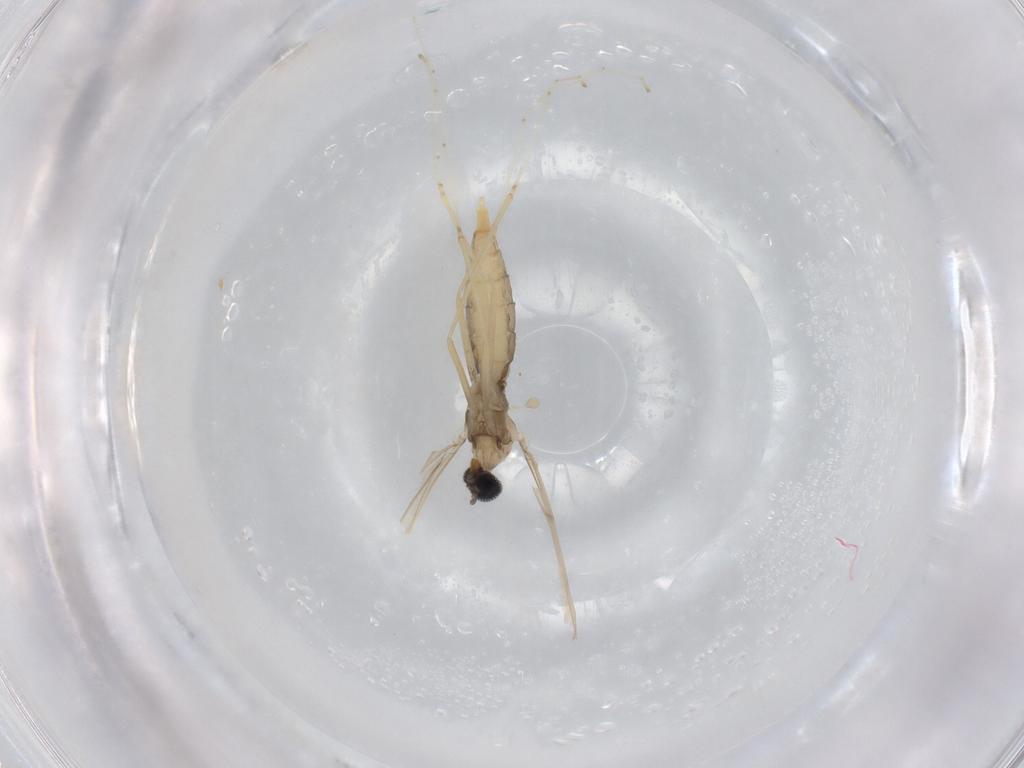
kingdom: Animalia
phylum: Arthropoda
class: Insecta
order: Diptera
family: Cecidomyiidae
